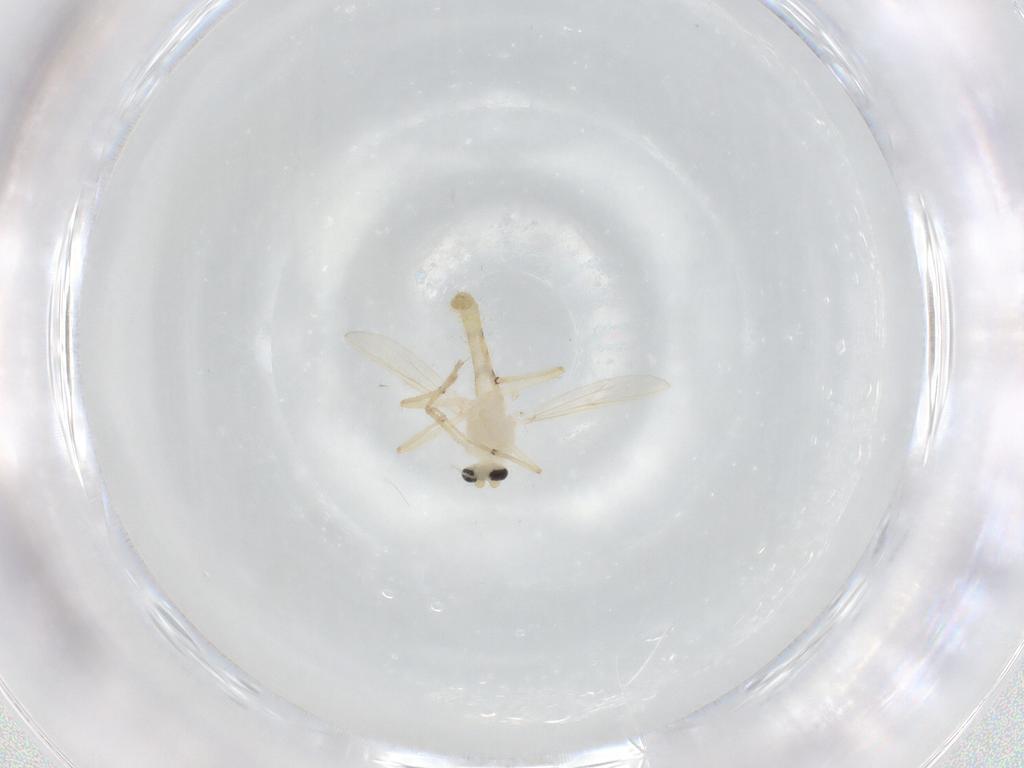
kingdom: Animalia
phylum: Arthropoda
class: Insecta
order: Diptera
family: Chironomidae
